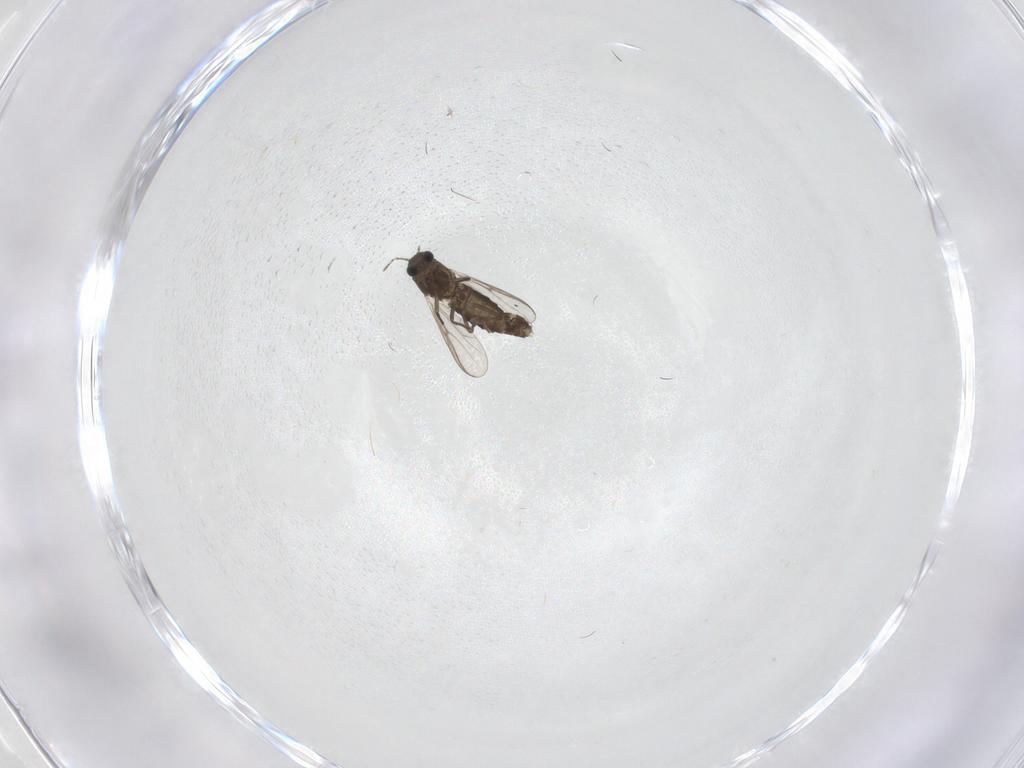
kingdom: Animalia
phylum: Arthropoda
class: Insecta
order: Diptera
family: Chironomidae
